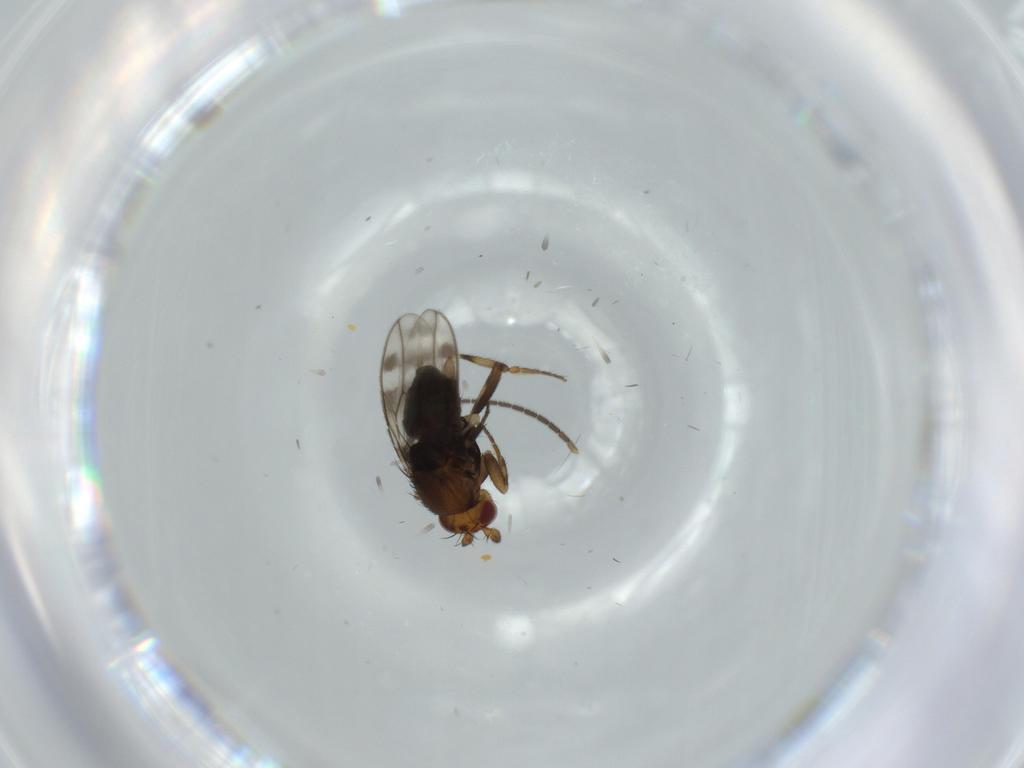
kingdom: Animalia
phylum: Arthropoda
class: Insecta
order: Diptera
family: Sphaeroceridae
